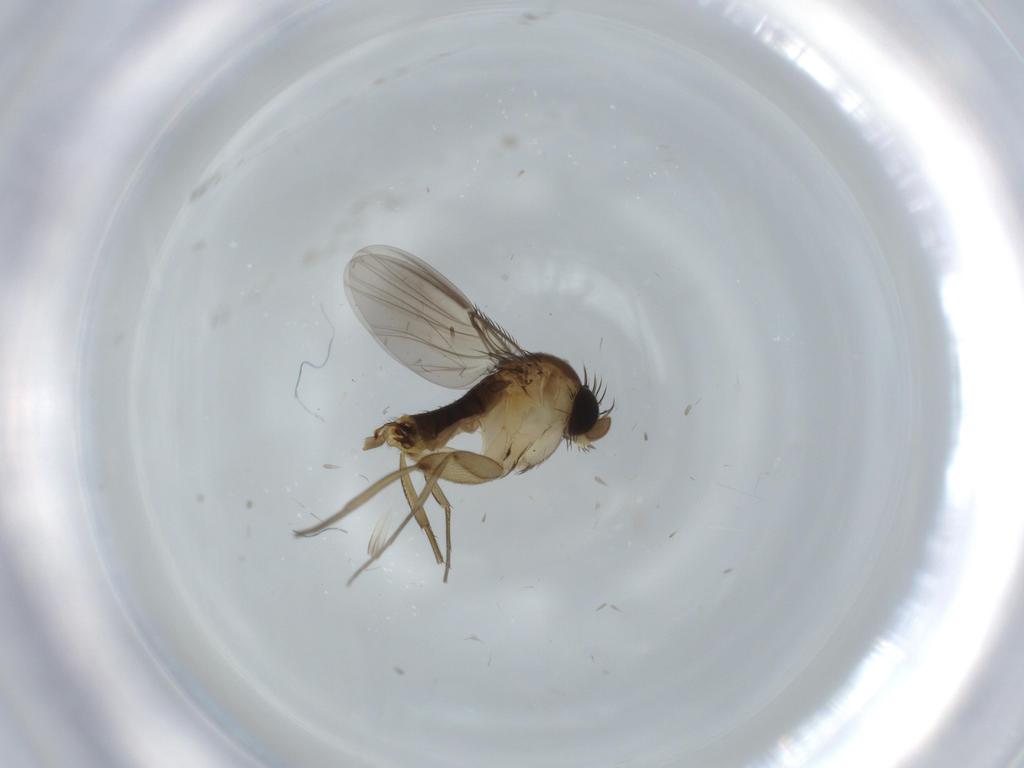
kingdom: Animalia
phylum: Arthropoda
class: Insecta
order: Diptera
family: Phoridae
